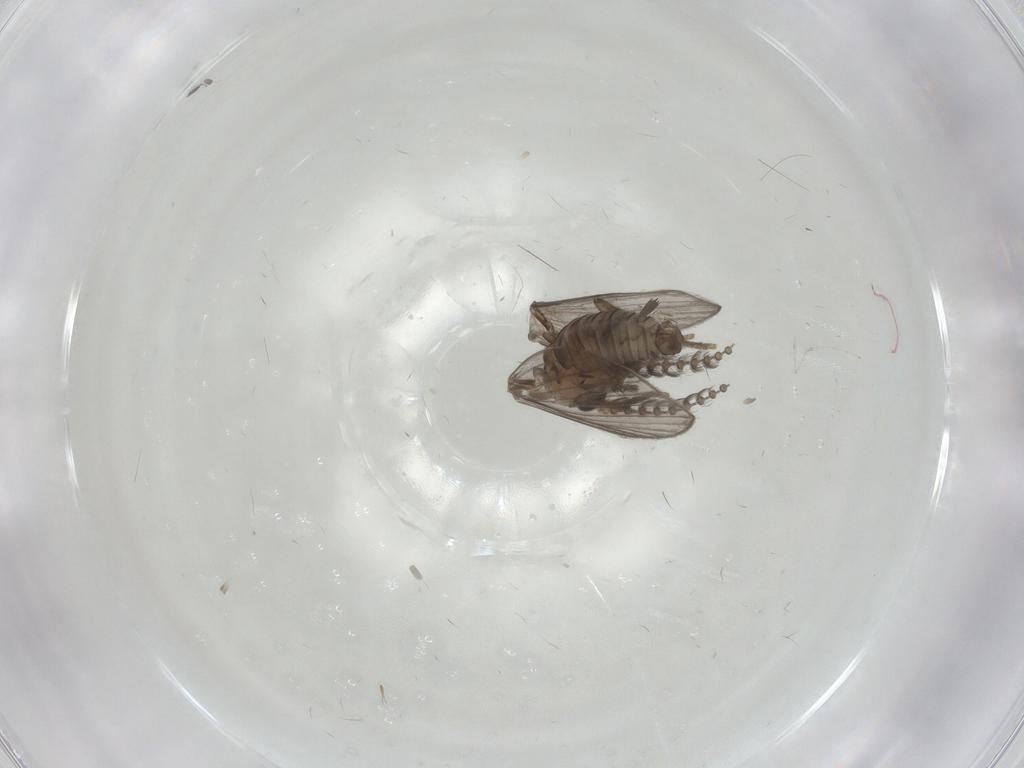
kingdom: Animalia
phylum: Arthropoda
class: Insecta
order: Diptera
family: Psychodidae
